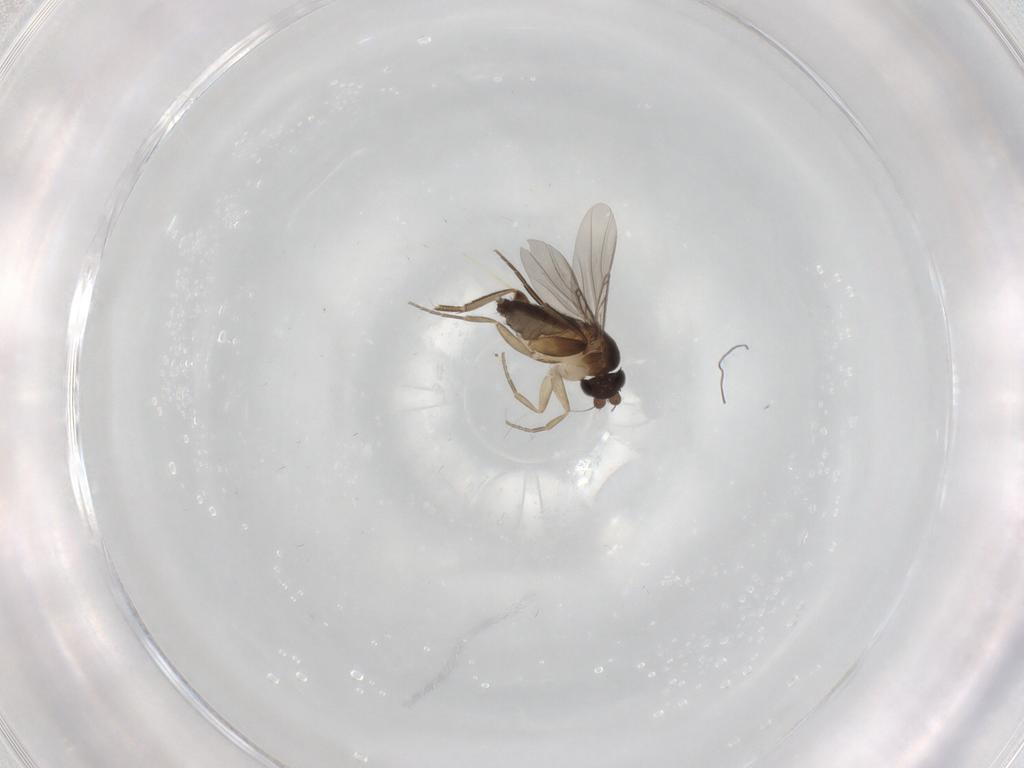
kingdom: Animalia
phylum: Arthropoda
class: Insecta
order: Diptera
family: Phoridae
